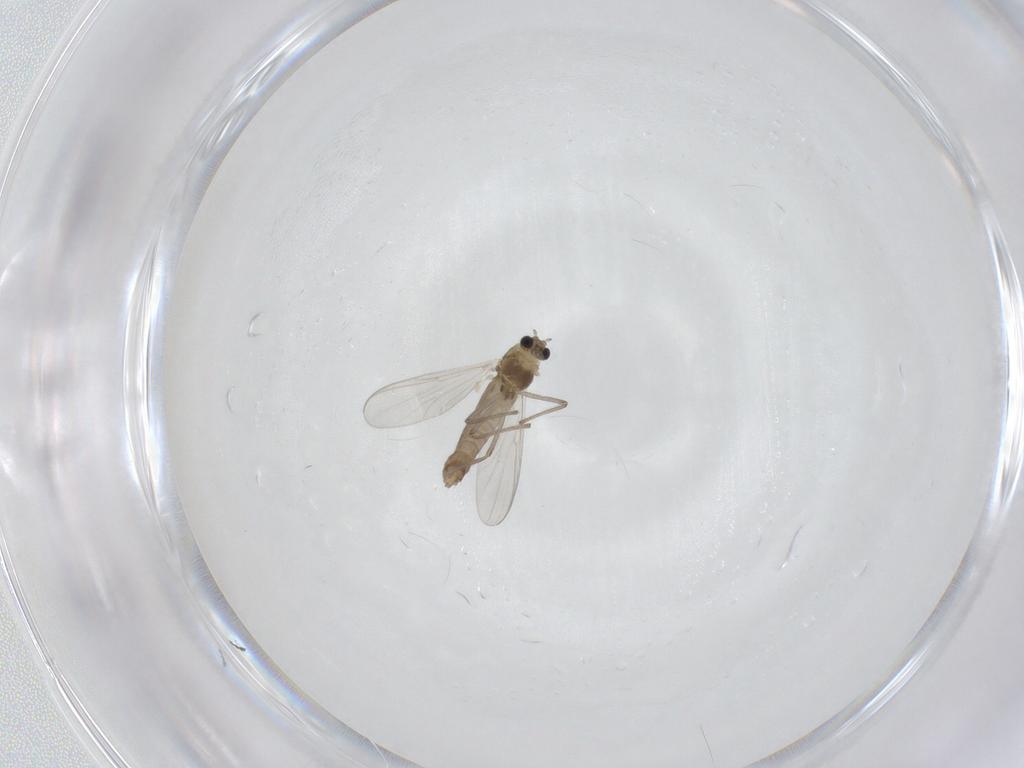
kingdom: Animalia
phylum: Arthropoda
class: Insecta
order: Diptera
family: Chironomidae
